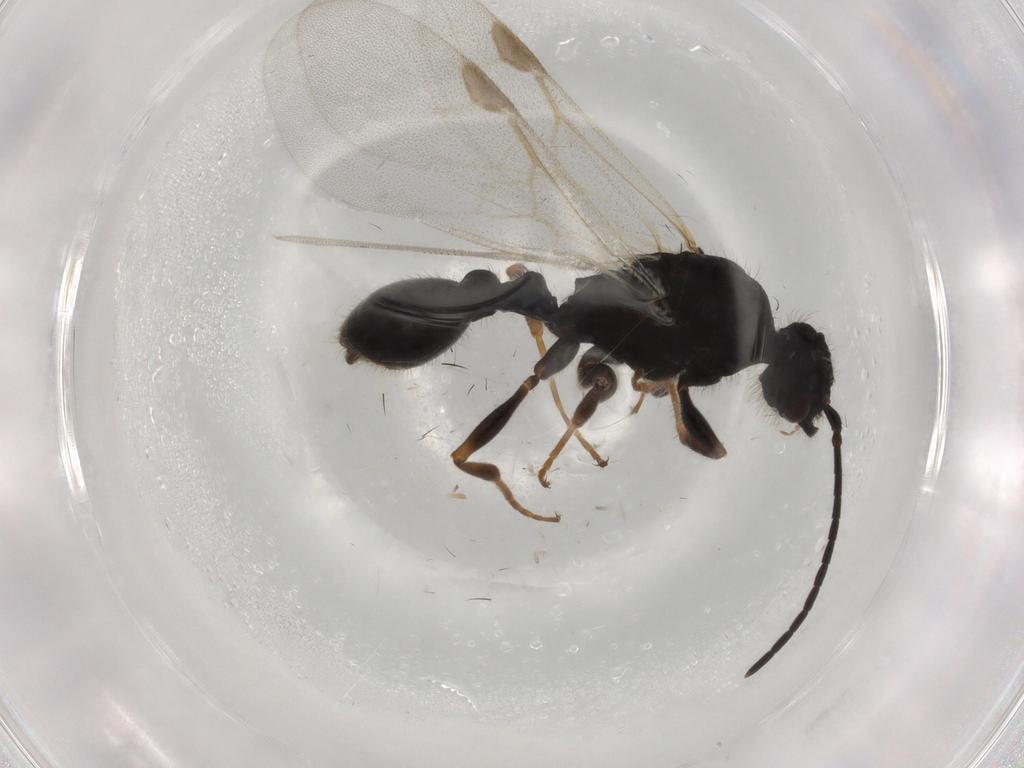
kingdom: Animalia
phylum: Arthropoda
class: Insecta
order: Hymenoptera
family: Formicidae
